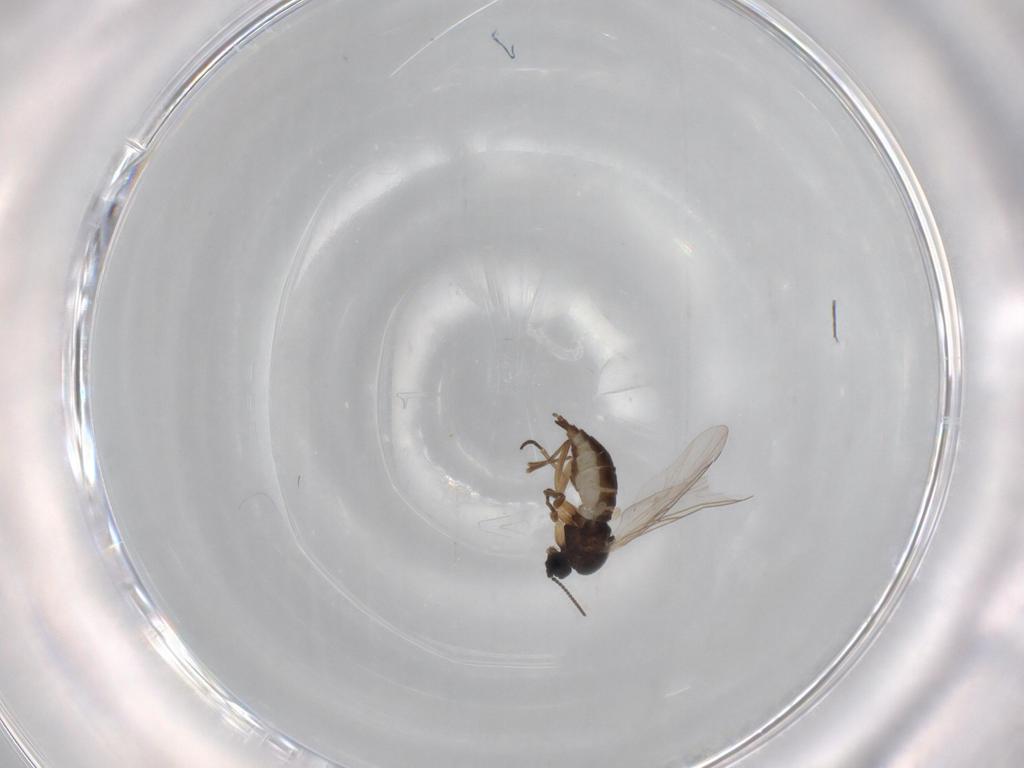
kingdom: Animalia
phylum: Arthropoda
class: Insecta
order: Diptera
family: Sciaridae
